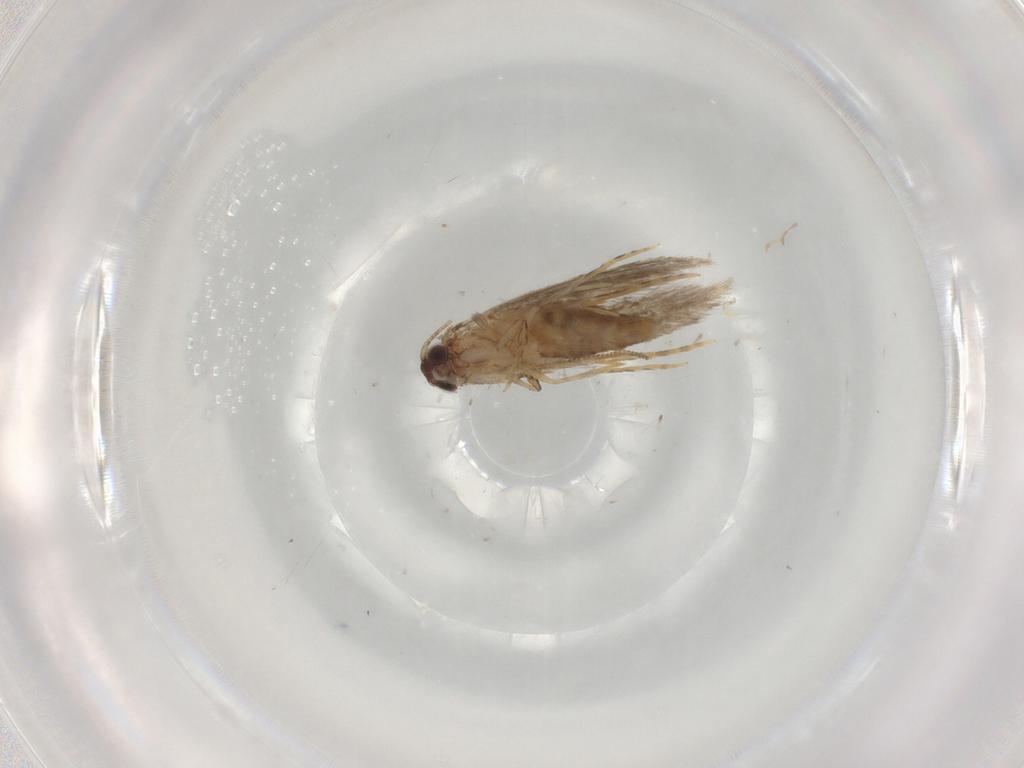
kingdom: Animalia
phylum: Arthropoda
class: Insecta
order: Lepidoptera
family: Tineidae
